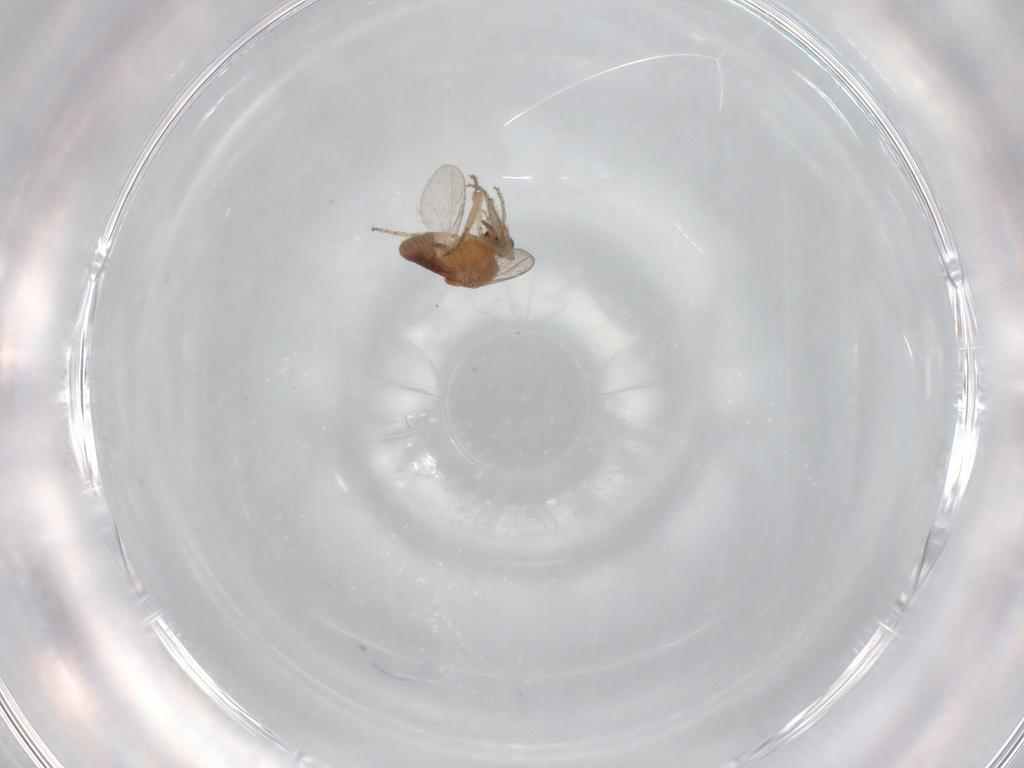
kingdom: Animalia
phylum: Arthropoda
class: Insecta
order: Diptera
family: Ceratopogonidae
